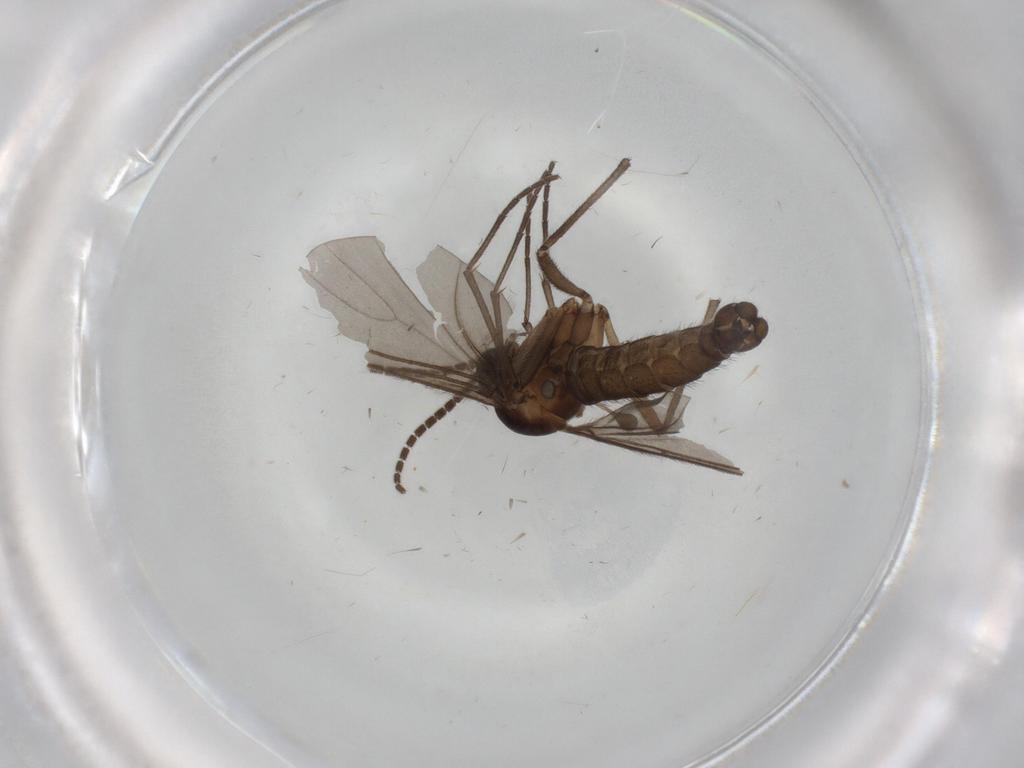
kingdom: Animalia
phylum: Arthropoda
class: Insecta
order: Diptera
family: Sciaridae
